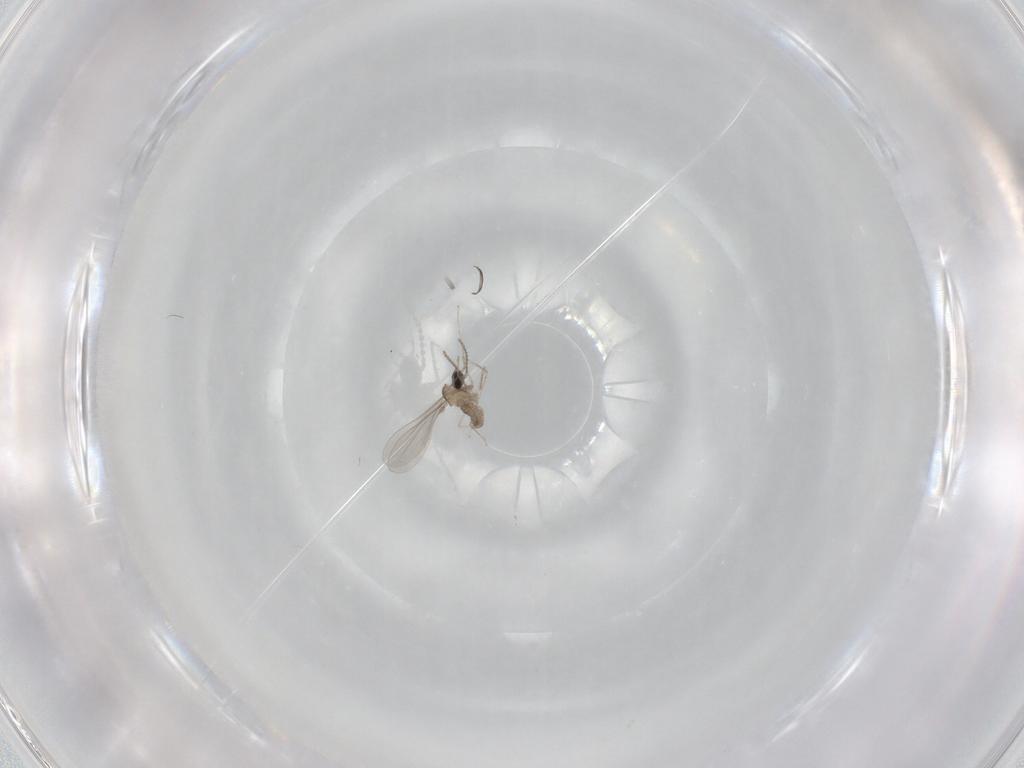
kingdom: Animalia
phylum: Arthropoda
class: Insecta
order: Diptera
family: Cecidomyiidae
